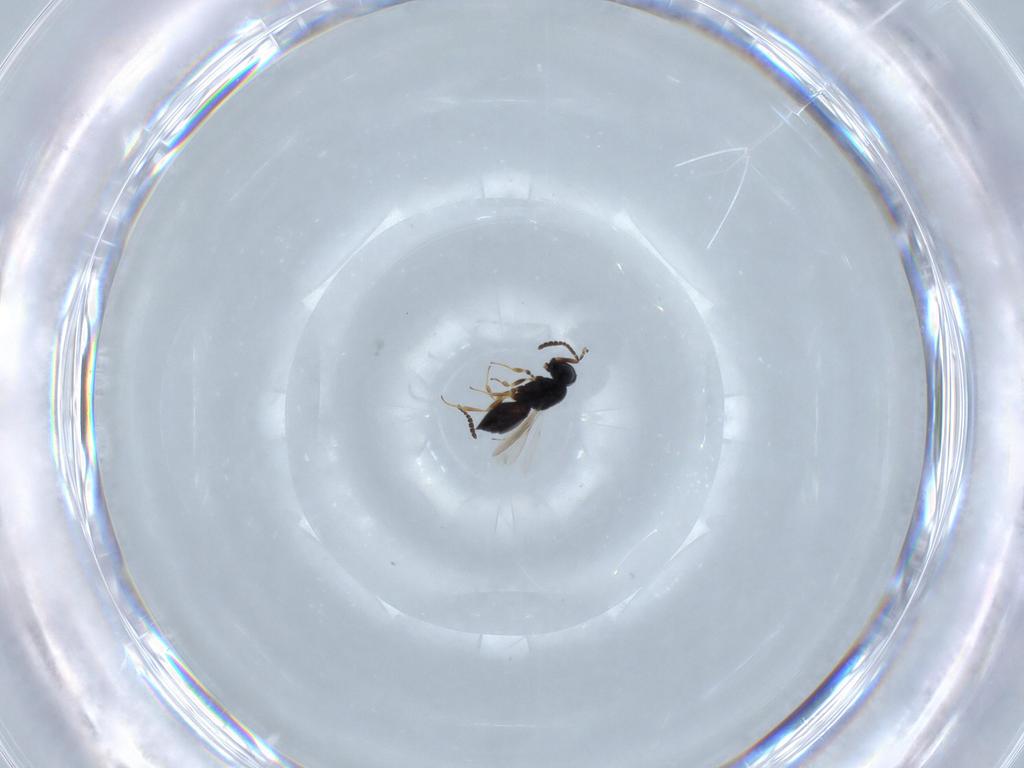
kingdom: Animalia
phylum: Arthropoda
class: Insecta
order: Hymenoptera
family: Scelionidae
